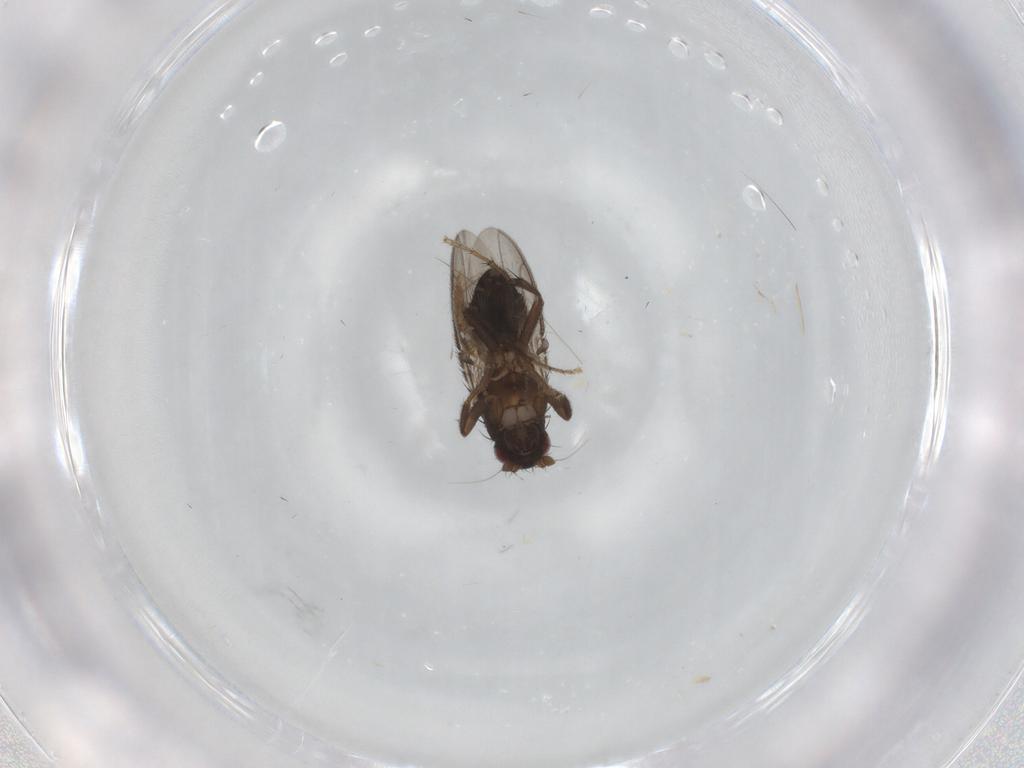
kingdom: Animalia
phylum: Arthropoda
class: Insecta
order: Diptera
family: Sphaeroceridae
